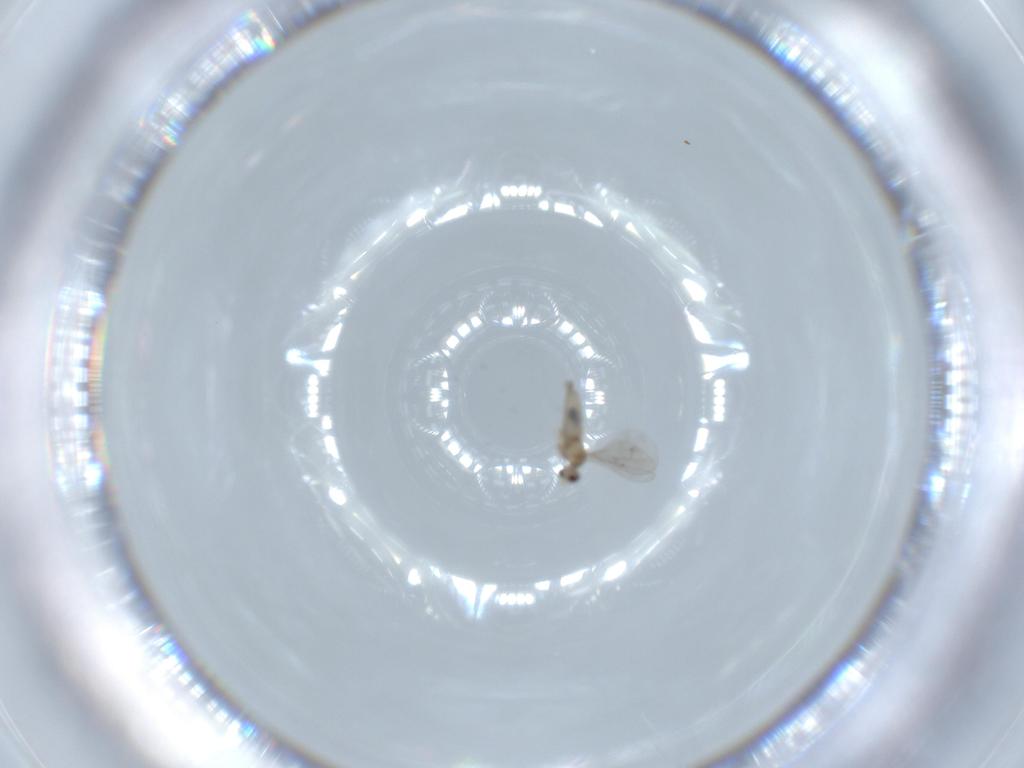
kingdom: Animalia
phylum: Arthropoda
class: Insecta
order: Diptera
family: Cecidomyiidae
